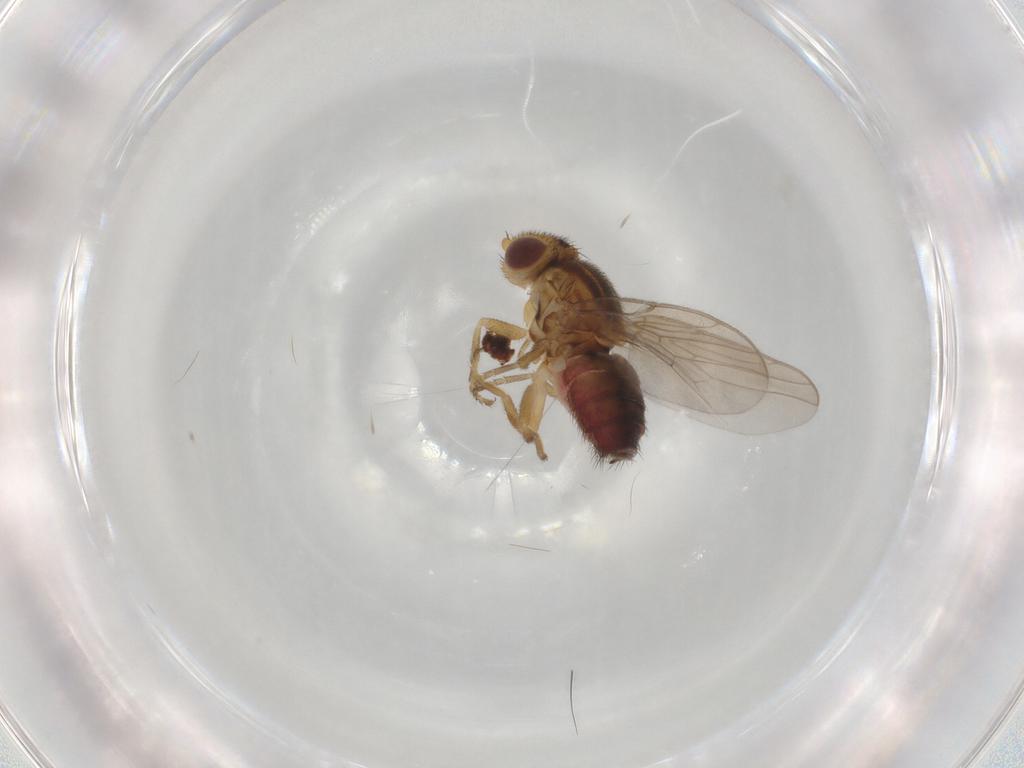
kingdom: Animalia
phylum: Arthropoda
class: Insecta
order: Diptera
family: Chloropidae
